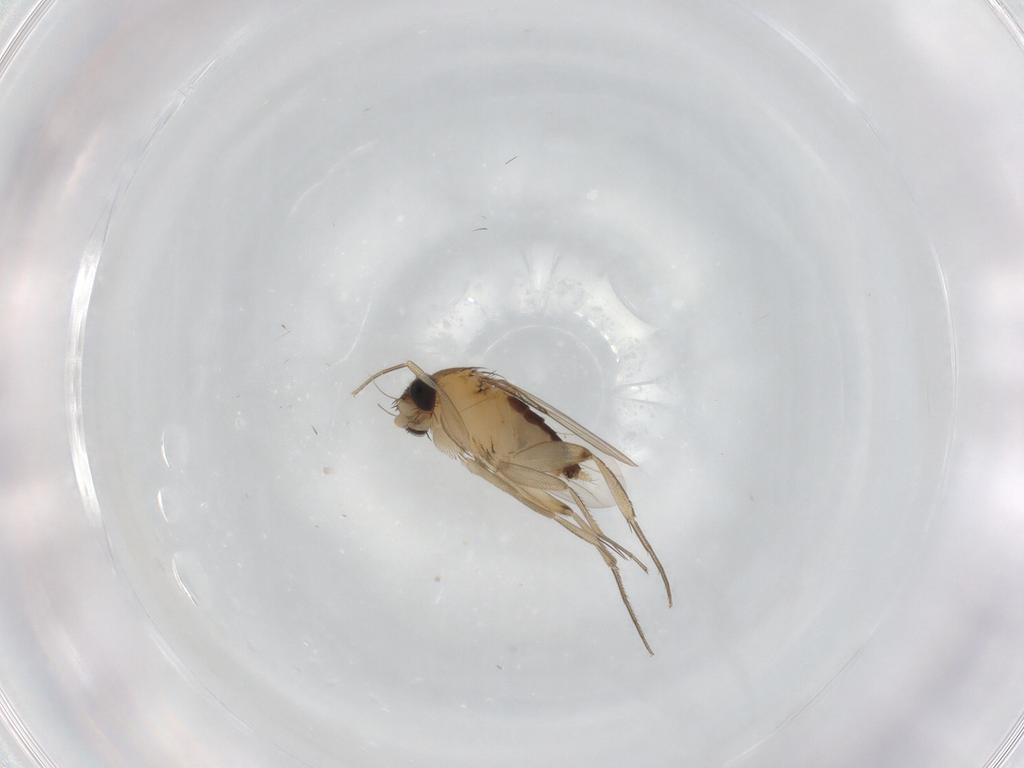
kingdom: Animalia
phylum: Arthropoda
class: Insecta
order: Diptera
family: Phoridae
